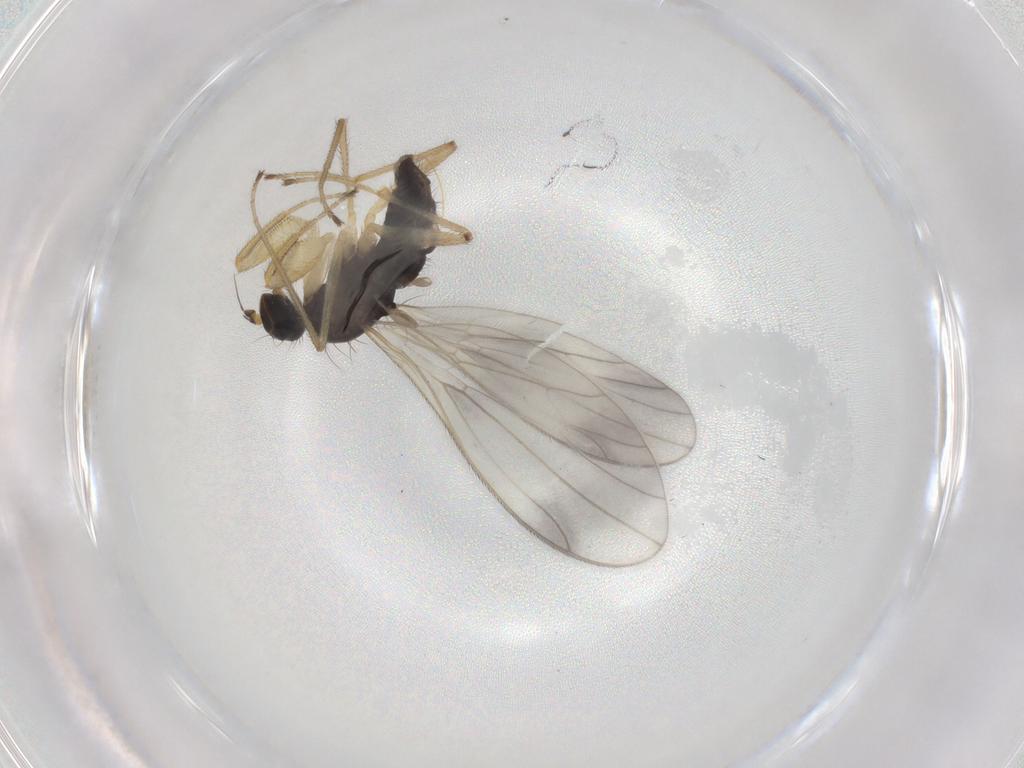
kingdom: Animalia
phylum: Arthropoda
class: Insecta
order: Diptera
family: Empididae
